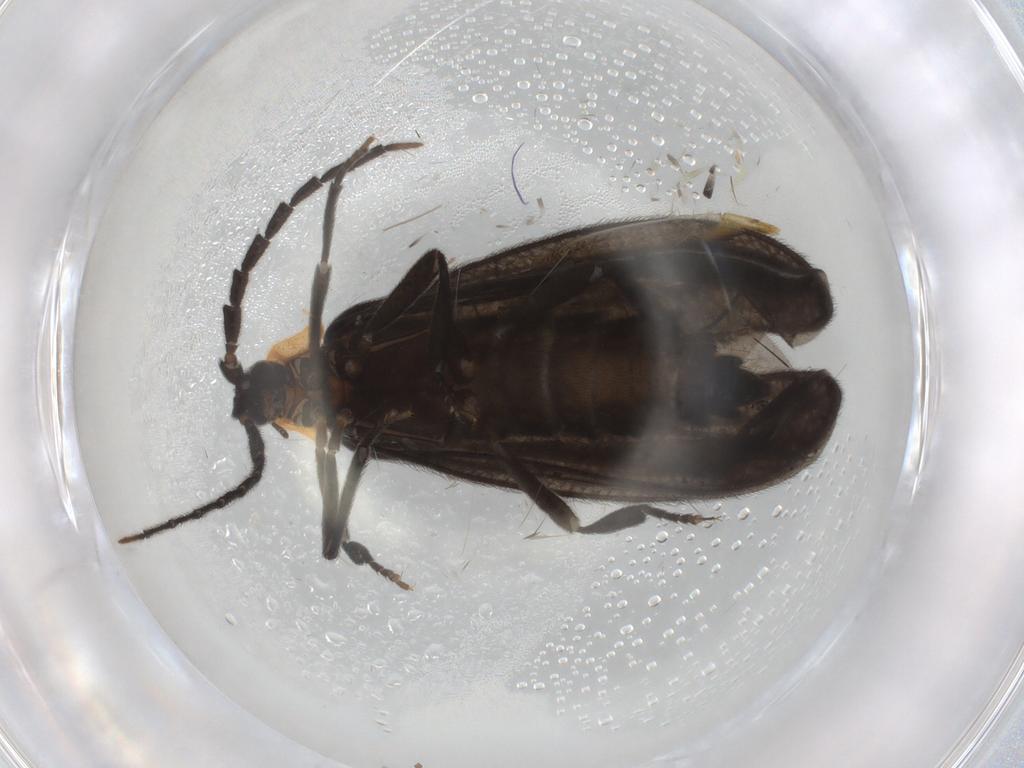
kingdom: Animalia
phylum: Arthropoda
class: Insecta
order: Coleoptera
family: Lycidae
